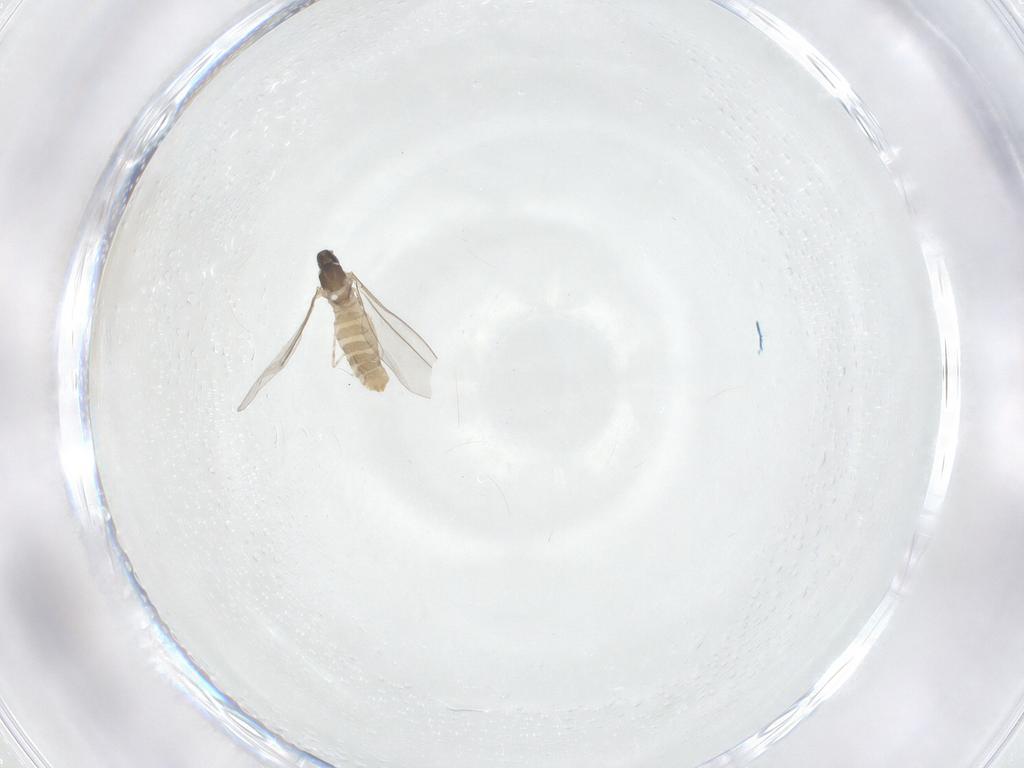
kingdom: Animalia
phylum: Arthropoda
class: Insecta
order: Diptera
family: Cecidomyiidae
